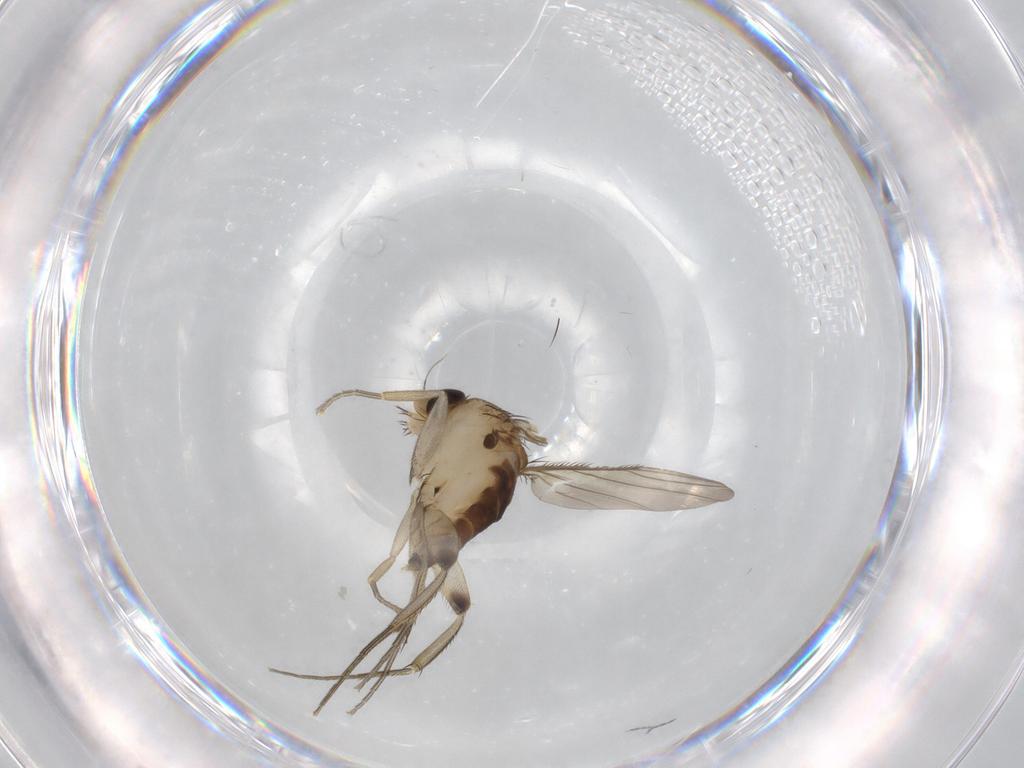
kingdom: Animalia
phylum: Arthropoda
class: Insecta
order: Diptera
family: Phoridae
